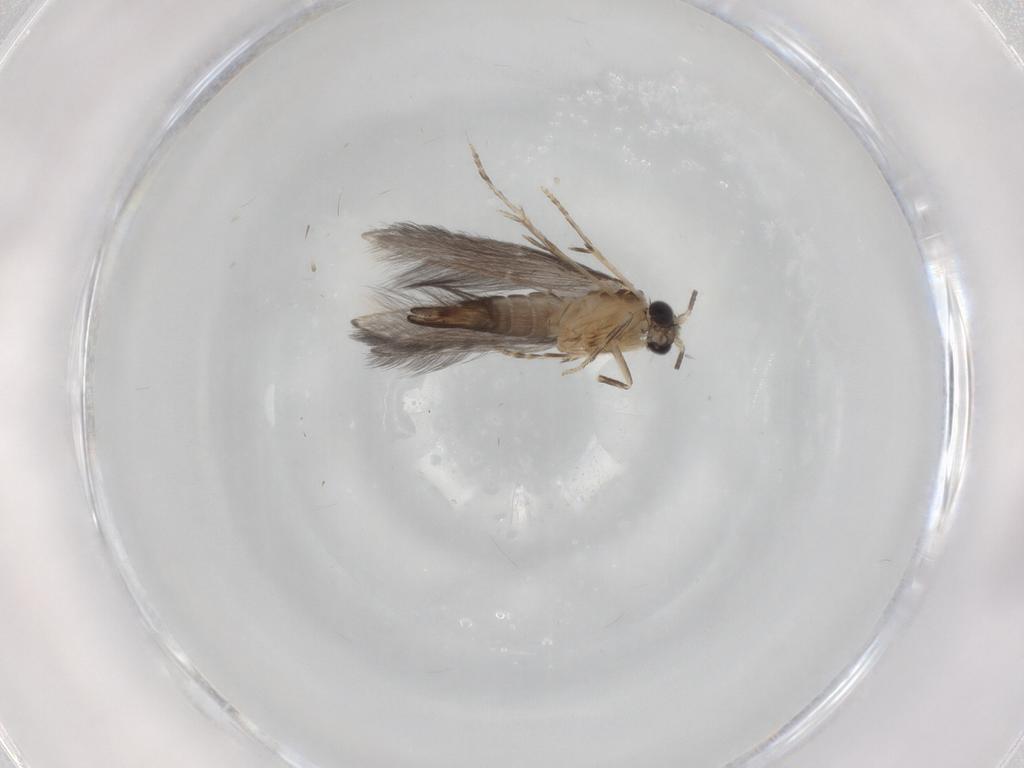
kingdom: Animalia
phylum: Arthropoda
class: Insecta
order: Trichoptera
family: Hydroptilidae
